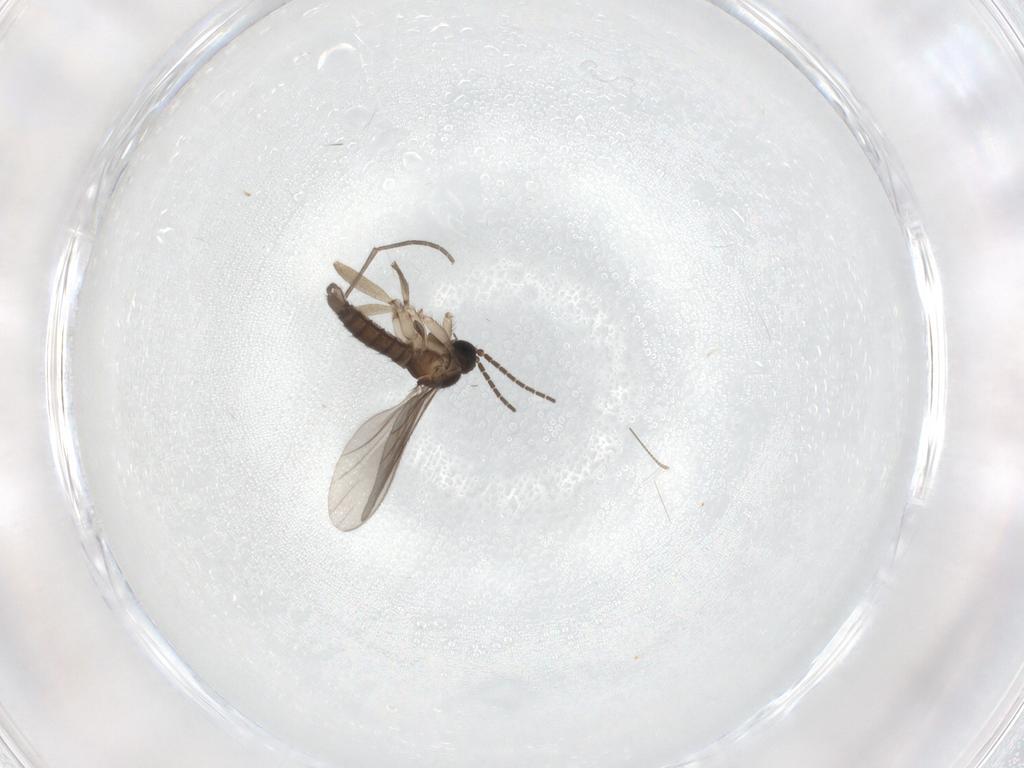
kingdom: Animalia
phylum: Arthropoda
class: Insecta
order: Diptera
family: Sciaridae
